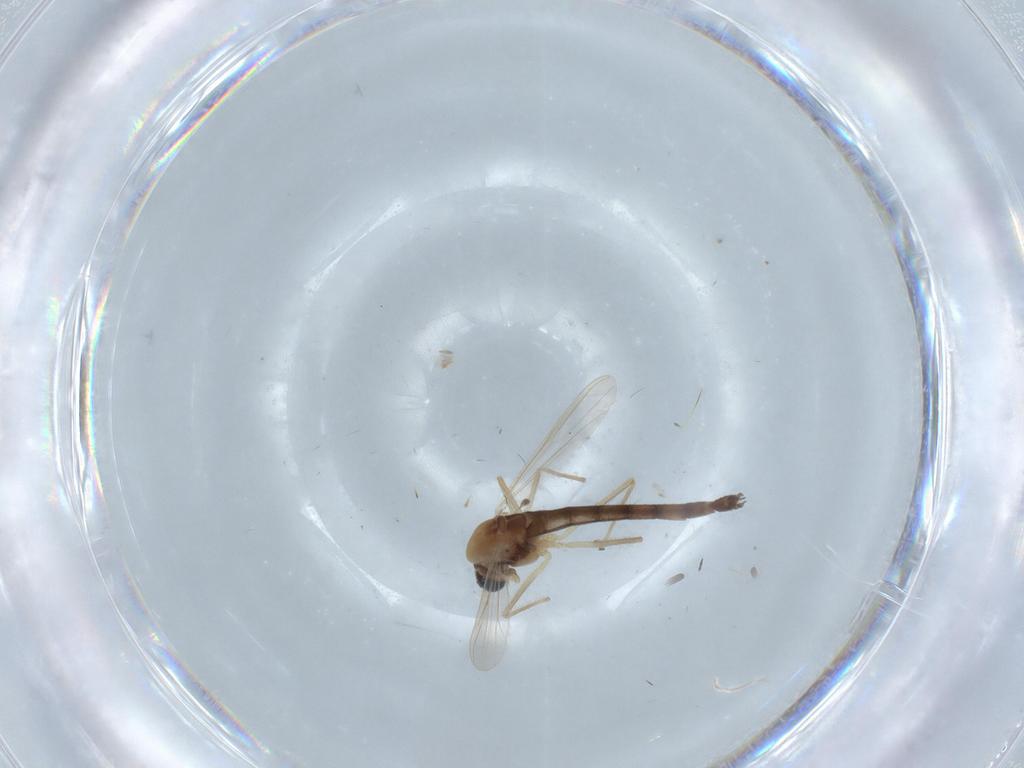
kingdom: Animalia
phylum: Arthropoda
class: Insecta
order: Diptera
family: Chironomidae
